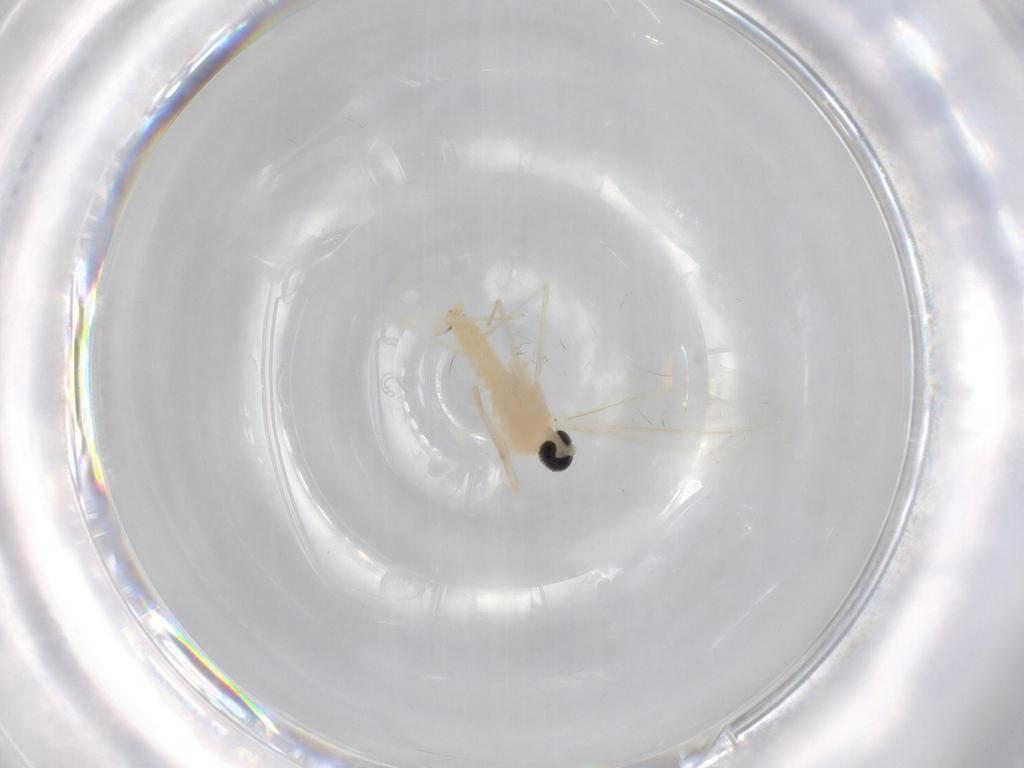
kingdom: Animalia
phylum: Arthropoda
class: Insecta
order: Diptera
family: Cecidomyiidae
